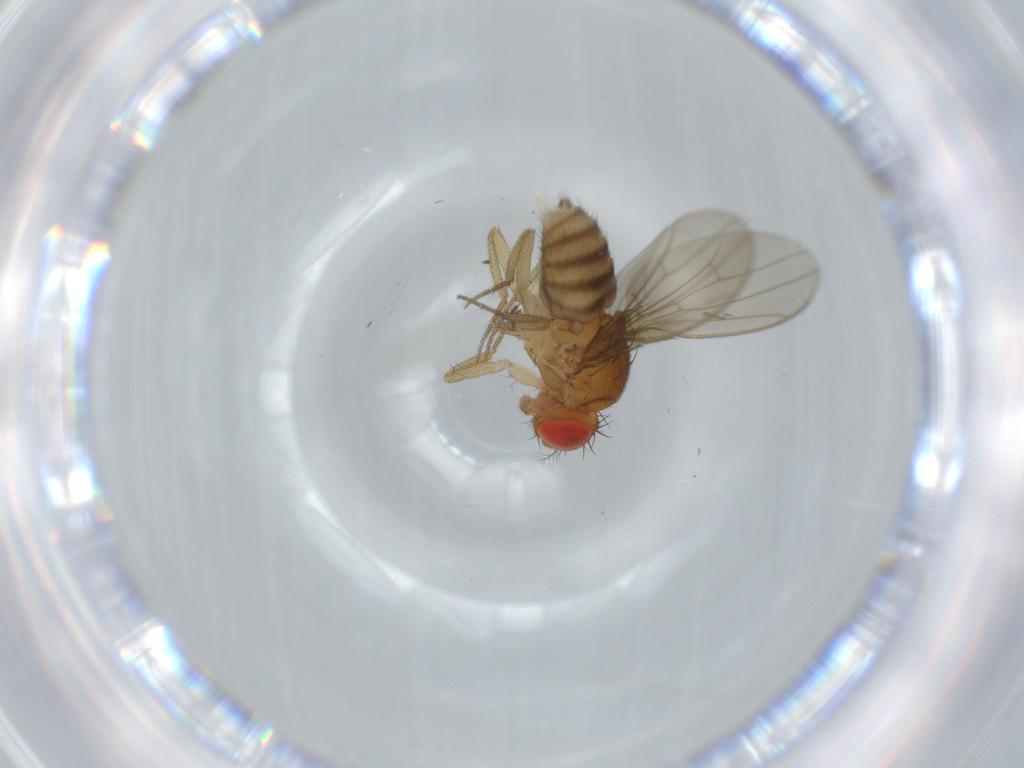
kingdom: Animalia
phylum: Arthropoda
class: Insecta
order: Diptera
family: Drosophilidae
